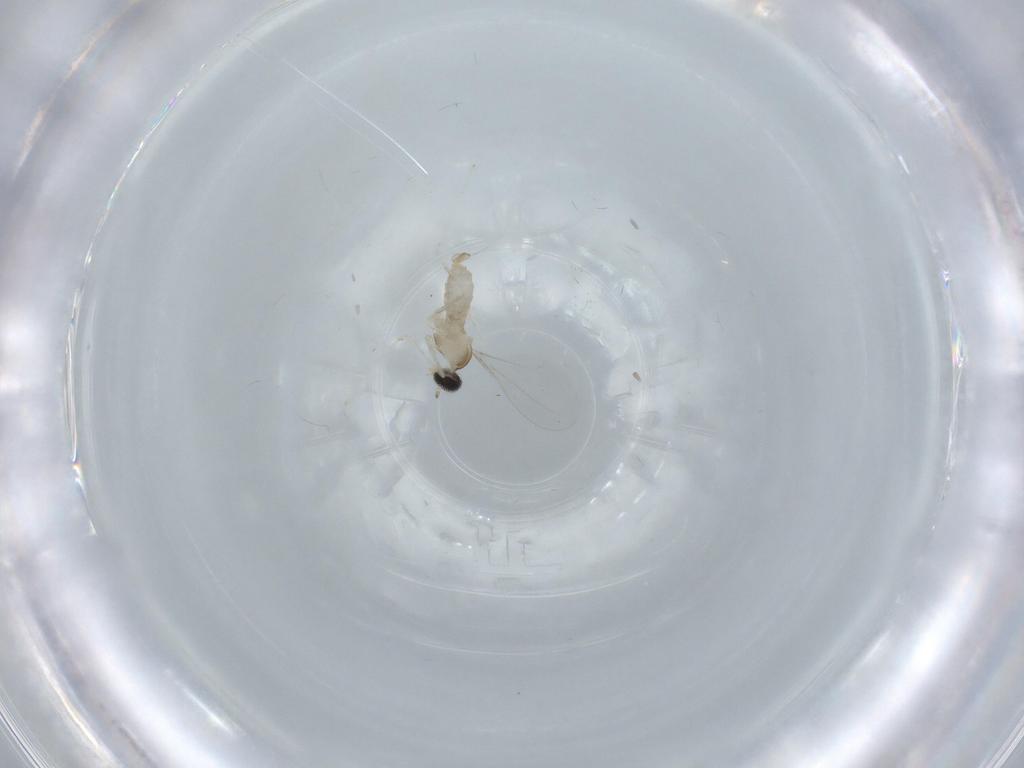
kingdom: Animalia
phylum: Arthropoda
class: Insecta
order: Diptera
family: Cecidomyiidae
